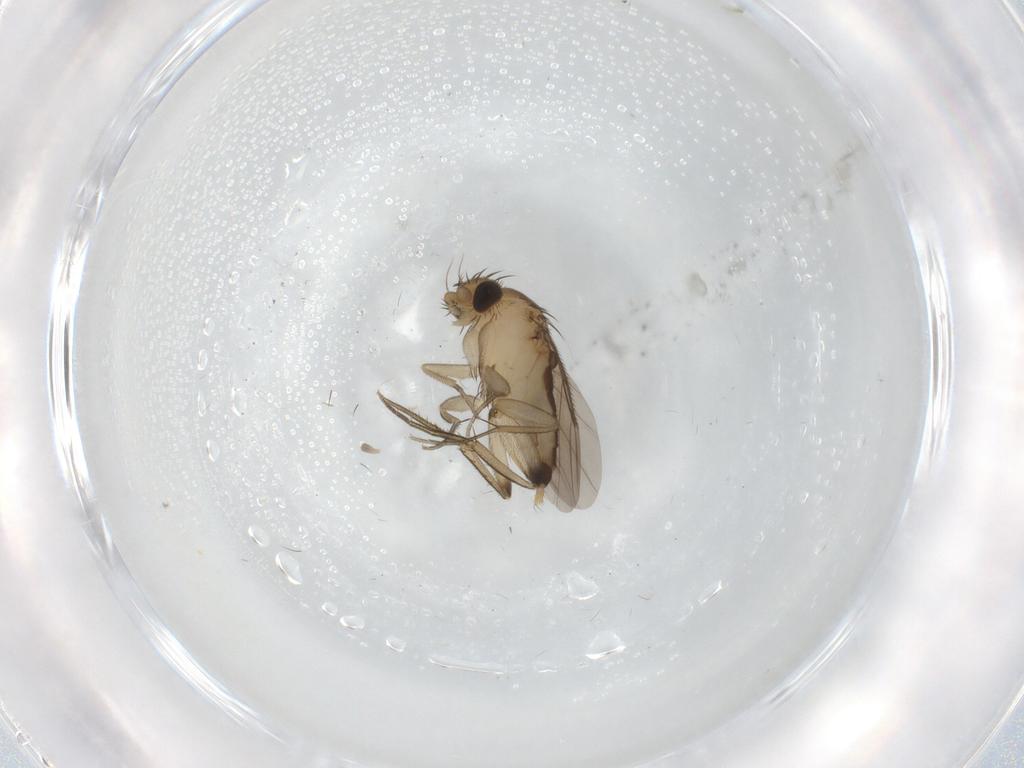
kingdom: Animalia
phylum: Arthropoda
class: Insecta
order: Diptera
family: Phoridae
